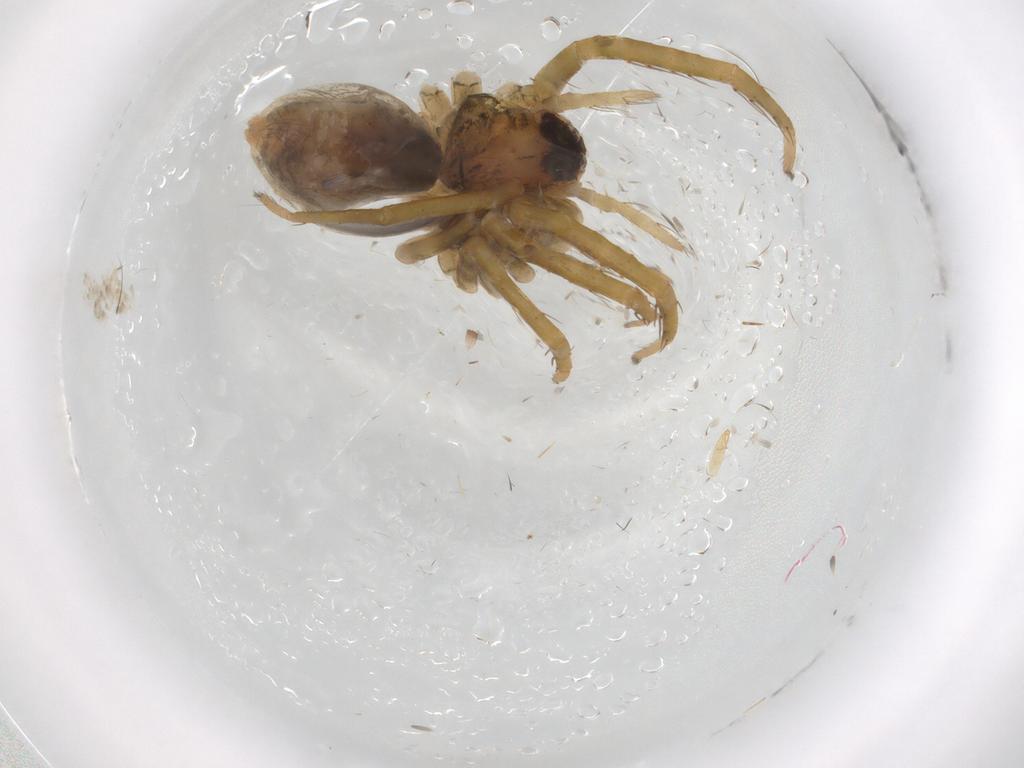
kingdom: Animalia
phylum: Arthropoda
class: Arachnida
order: Araneae
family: Ctenidae
